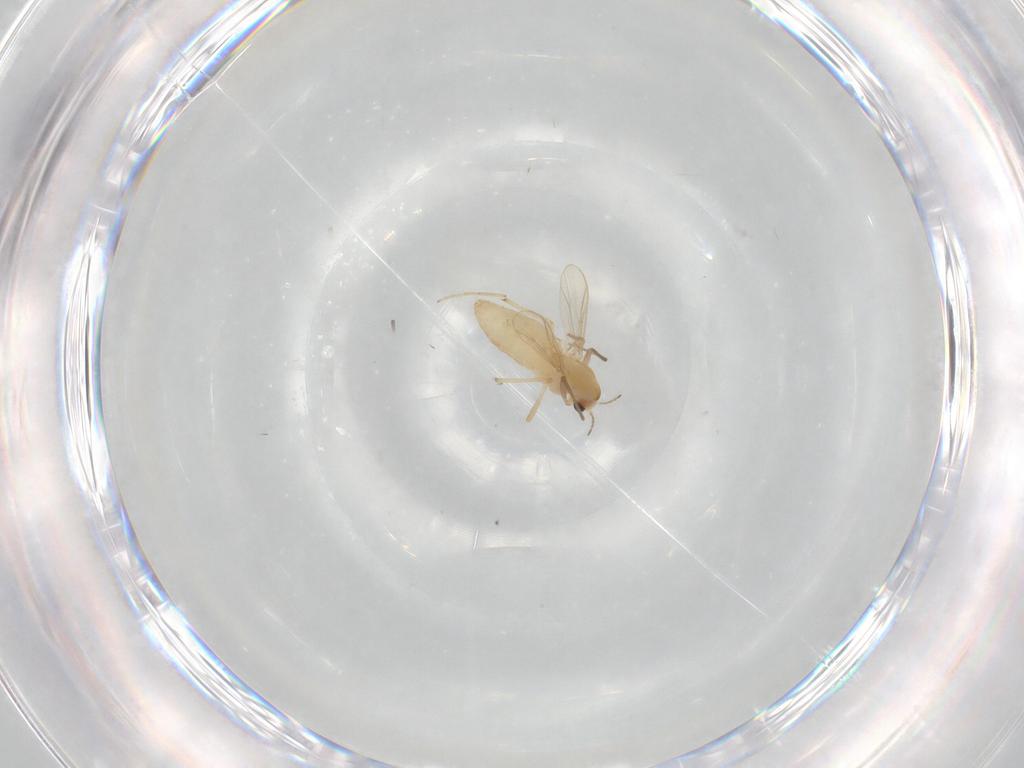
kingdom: Animalia
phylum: Arthropoda
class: Insecta
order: Diptera
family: Chironomidae
